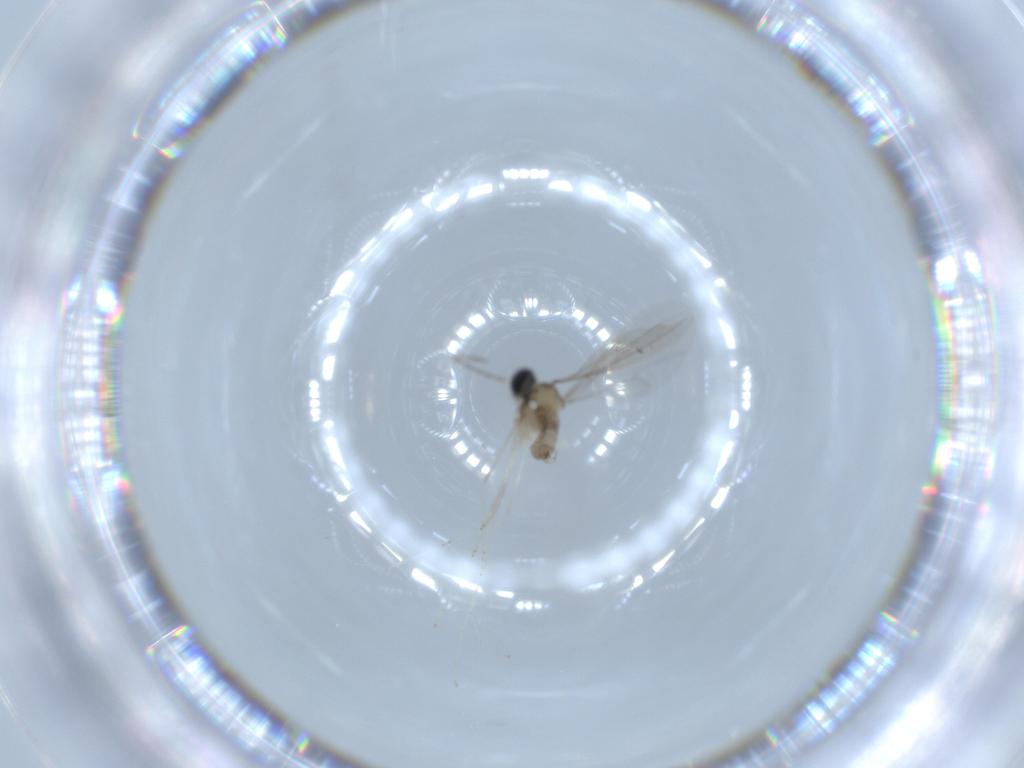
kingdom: Animalia
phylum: Arthropoda
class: Insecta
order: Diptera
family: Cecidomyiidae
